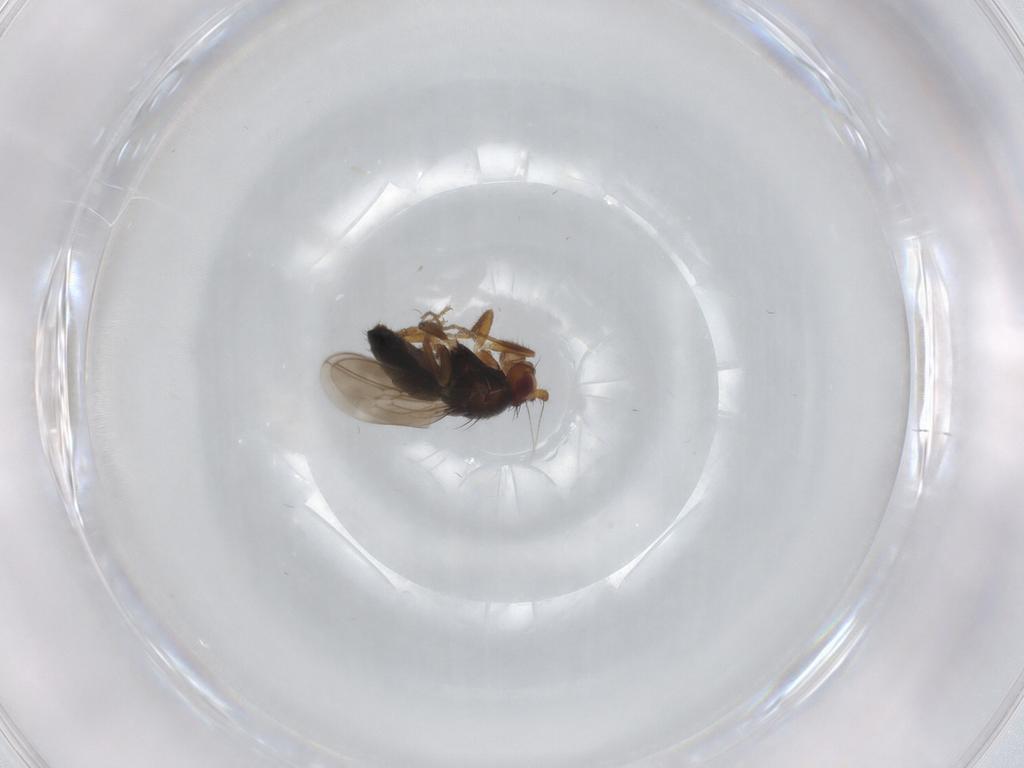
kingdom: Animalia
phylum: Arthropoda
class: Insecta
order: Diptera
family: Sphaeroceridae
